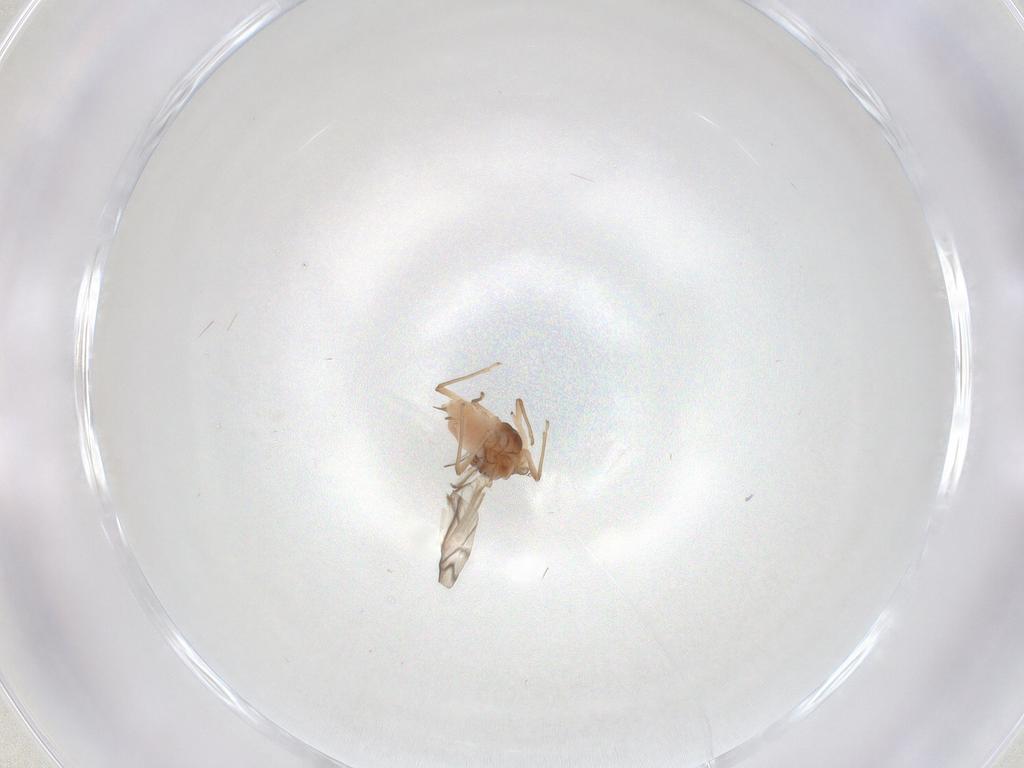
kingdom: Animalia
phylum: Arthropoda
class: Insecta
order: Hemiptera
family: Aphididae
